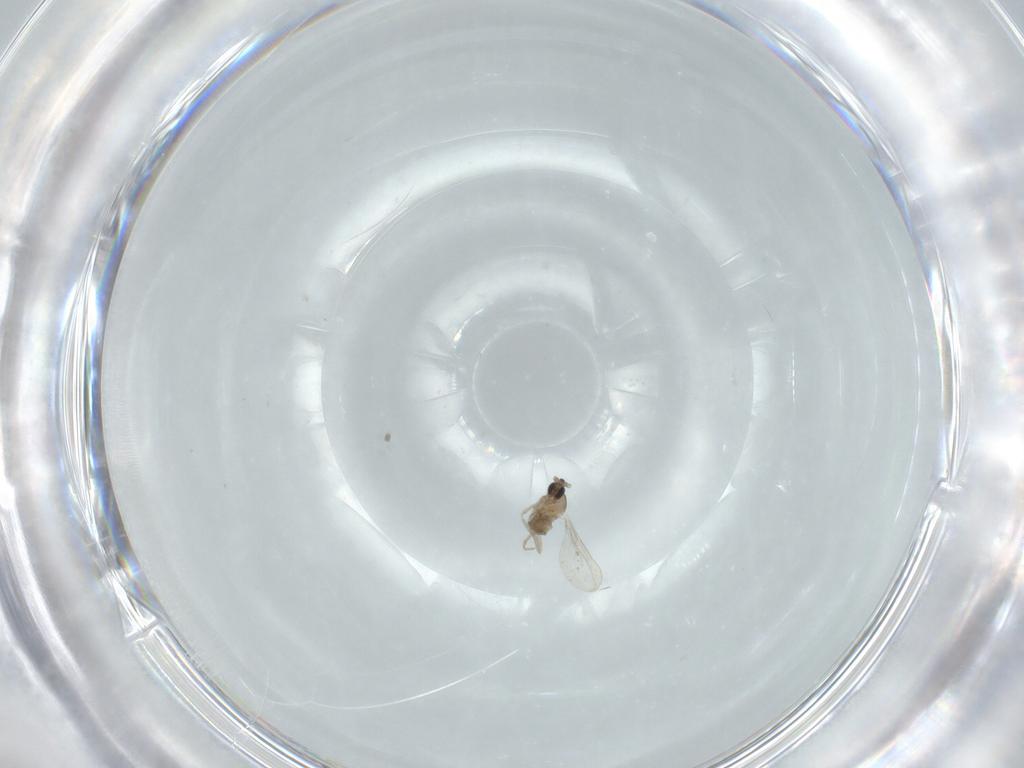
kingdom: Animalia
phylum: Arthropoda
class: Insecta
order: Diptera
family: Cecidomyiidae
